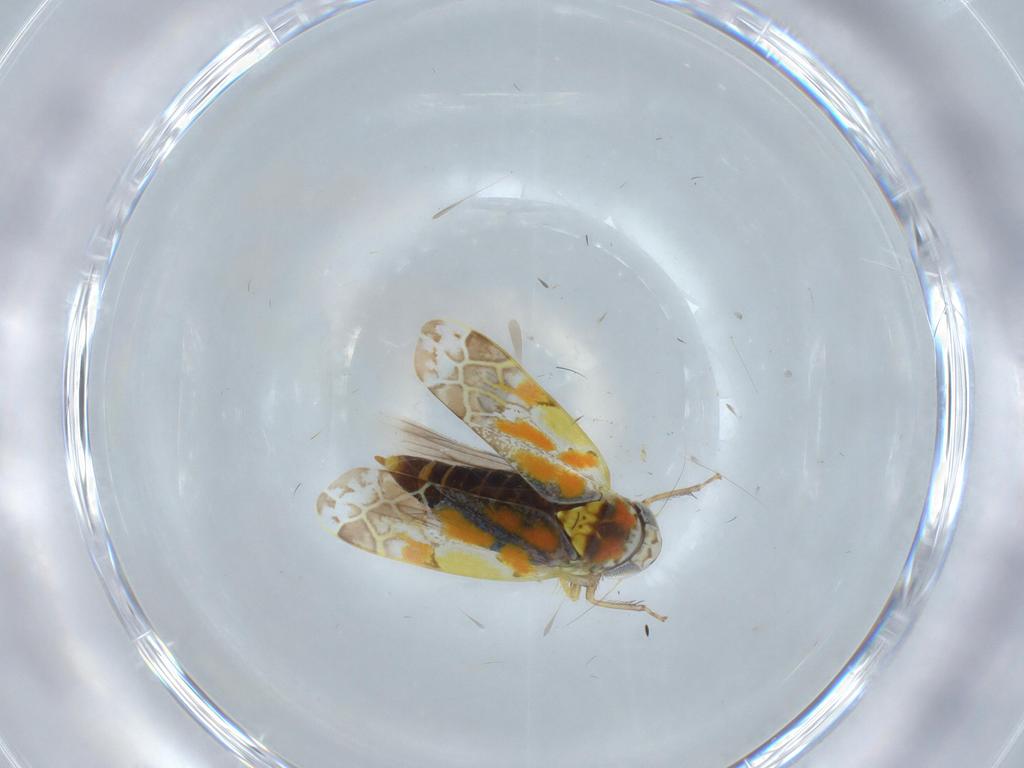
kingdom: Animalia
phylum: Arthropoda
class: Insecta
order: Hemiptera
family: Cicadellidae
